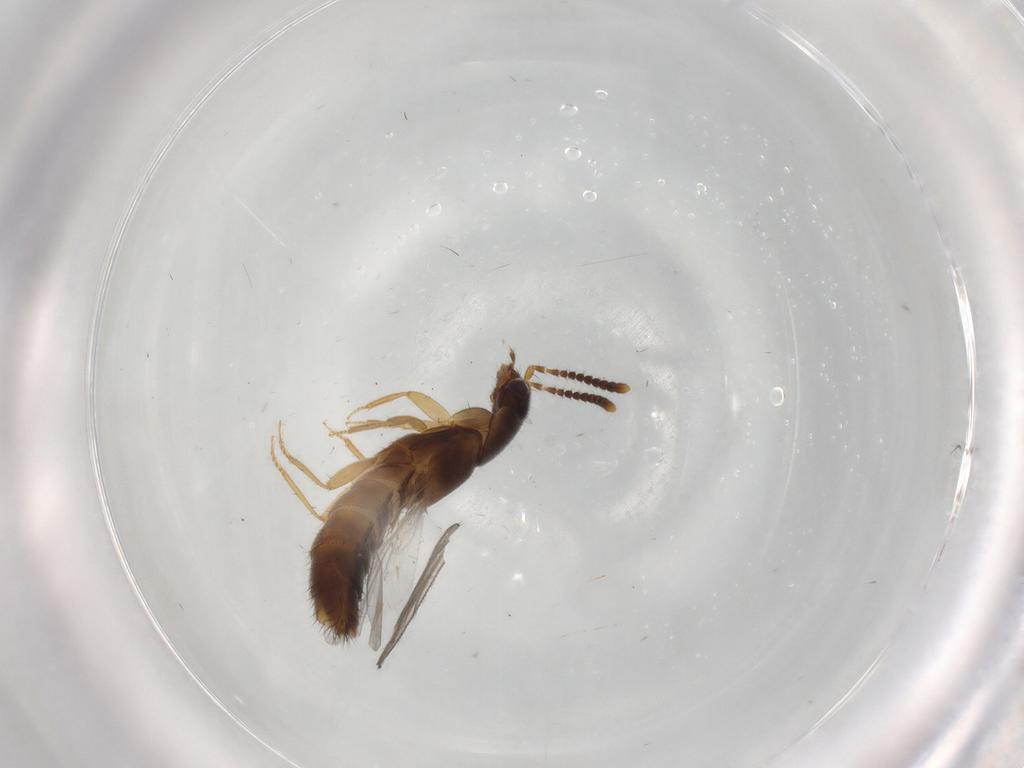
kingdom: Animalia
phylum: Arthropoda
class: Insecta
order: Coleoptera
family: Staphylinidae
